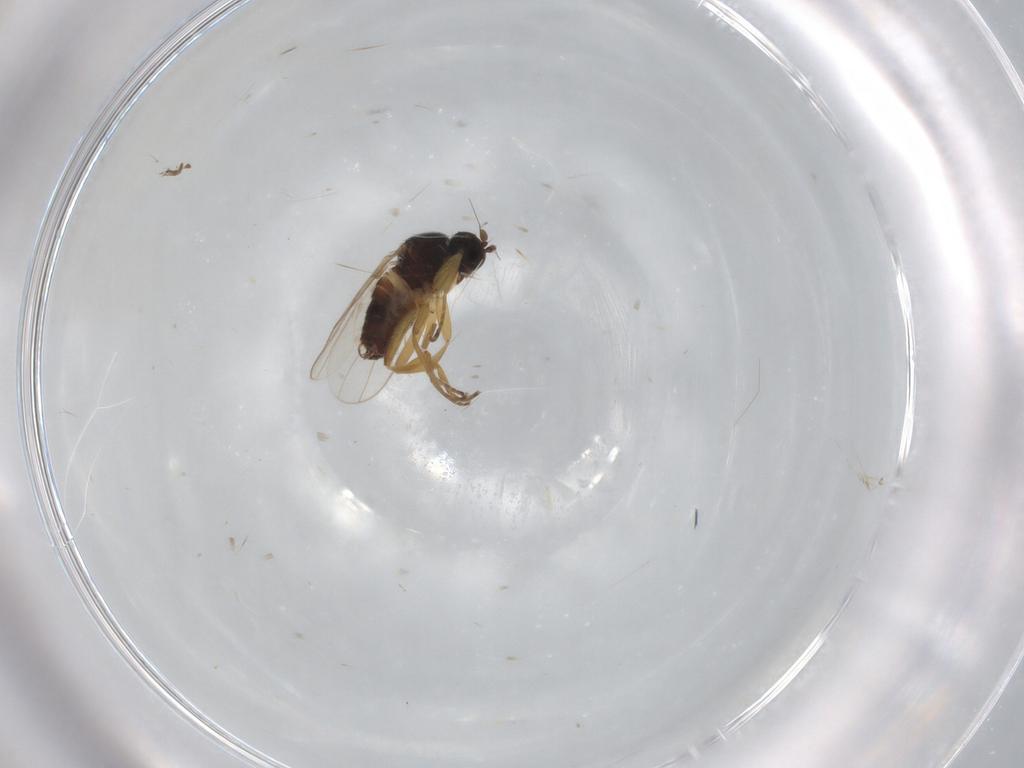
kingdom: Animalia
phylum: Arthropoda
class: Insecta
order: Diptera
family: Hybotidae
